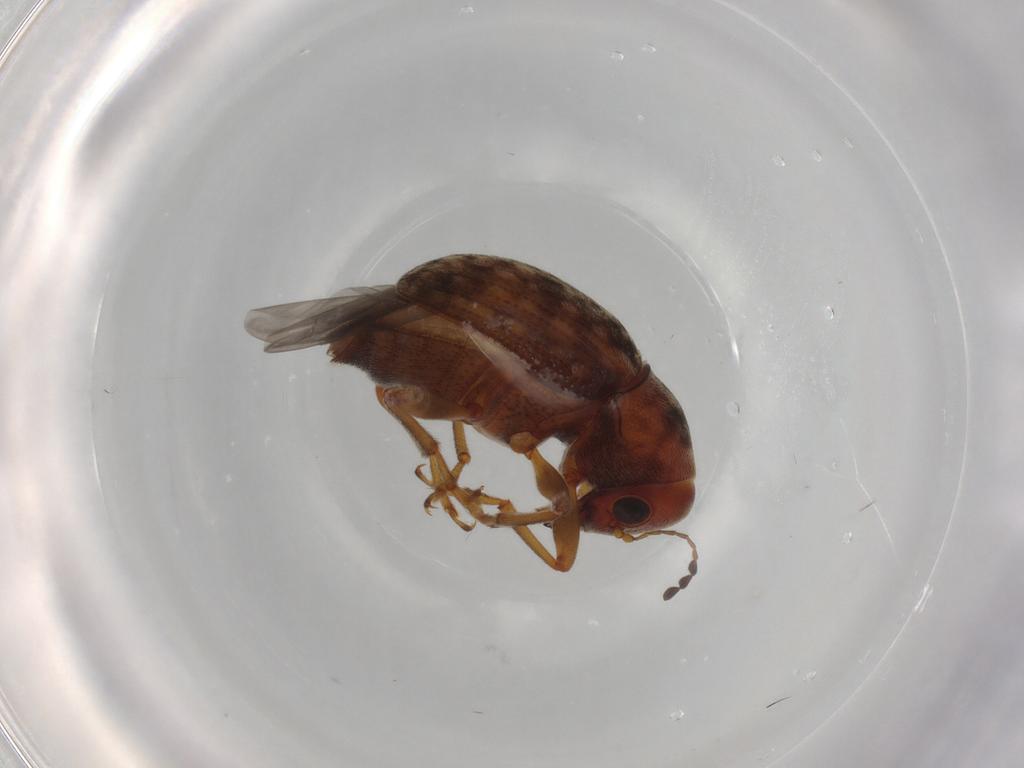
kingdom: Animalia
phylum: Arthropoda
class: Insecta
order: Coleoptera
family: Anthribidae
